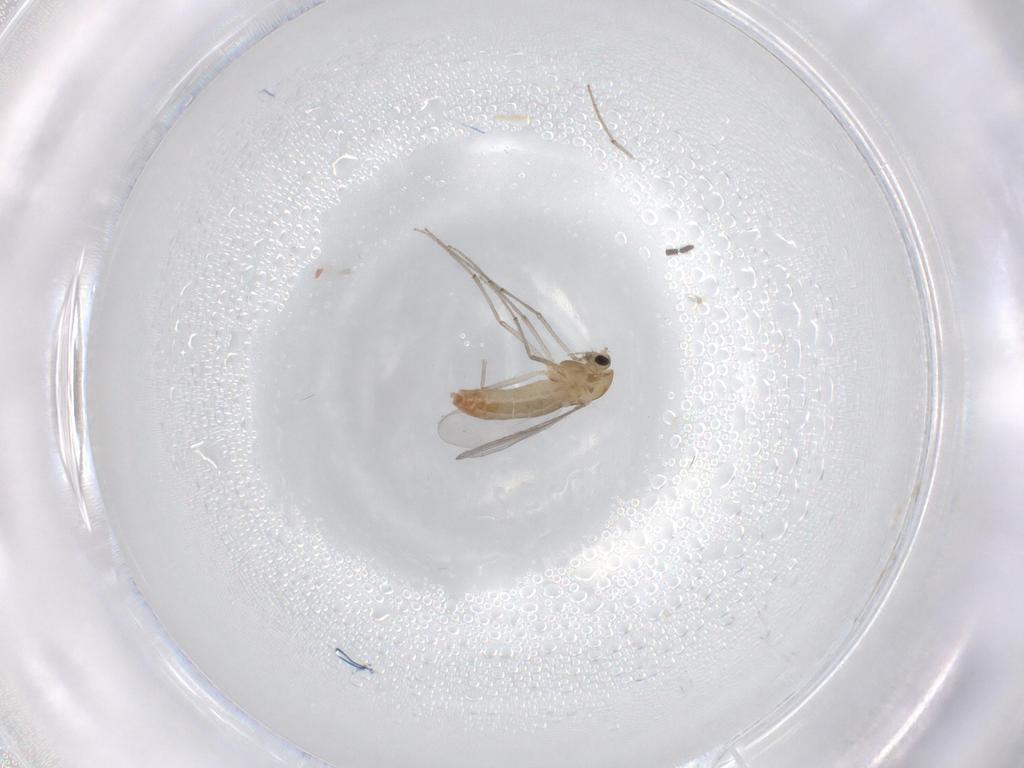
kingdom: Animalia
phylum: Arthropoda
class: Insecta
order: Diptera
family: Chironomidae
